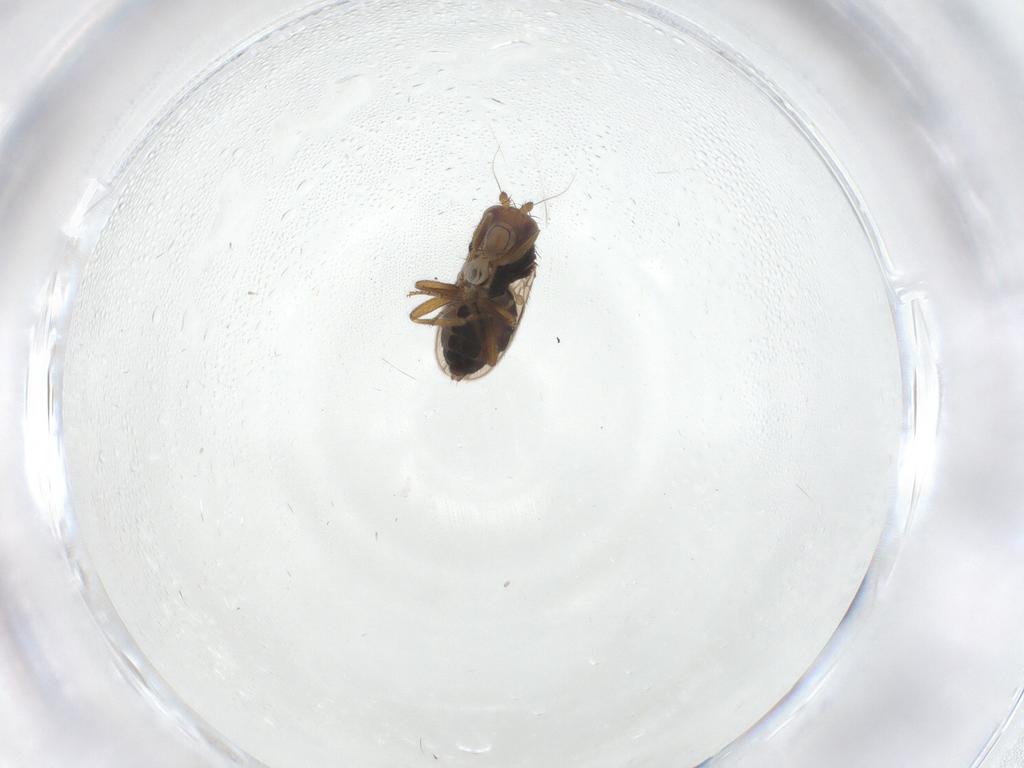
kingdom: Animalia
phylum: Arthropoda
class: Insecta
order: Diptera
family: Sphaeroceridae
